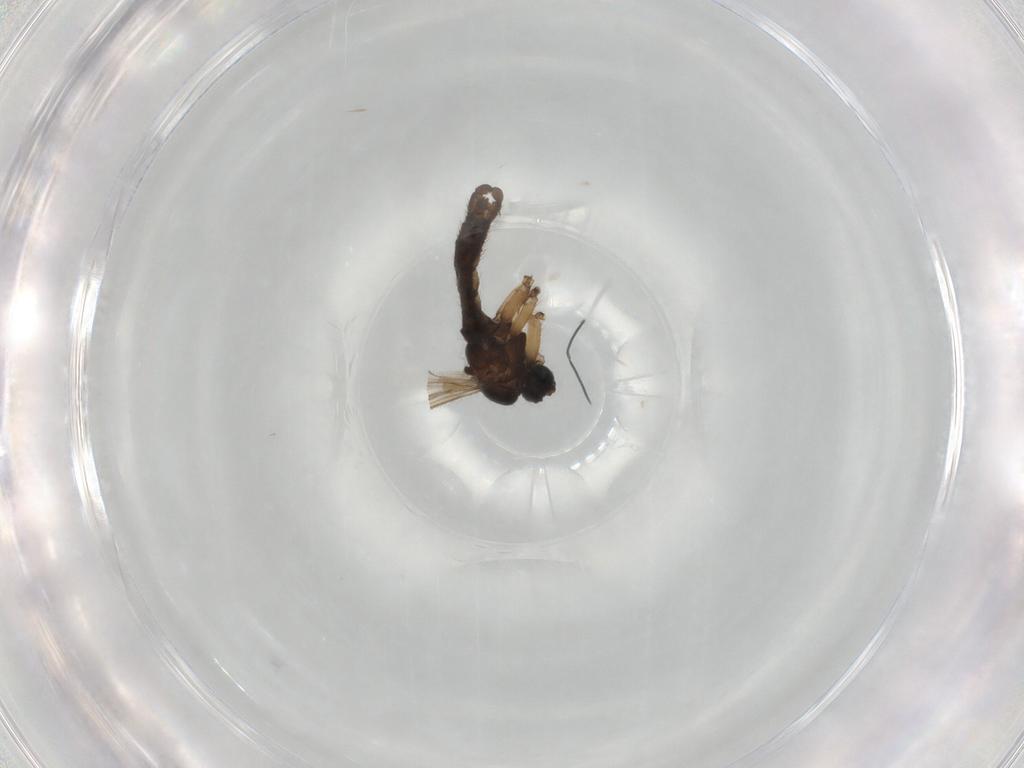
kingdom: Animalia
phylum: Arthropoda
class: Insecta
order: Diptera
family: Sciaridae
